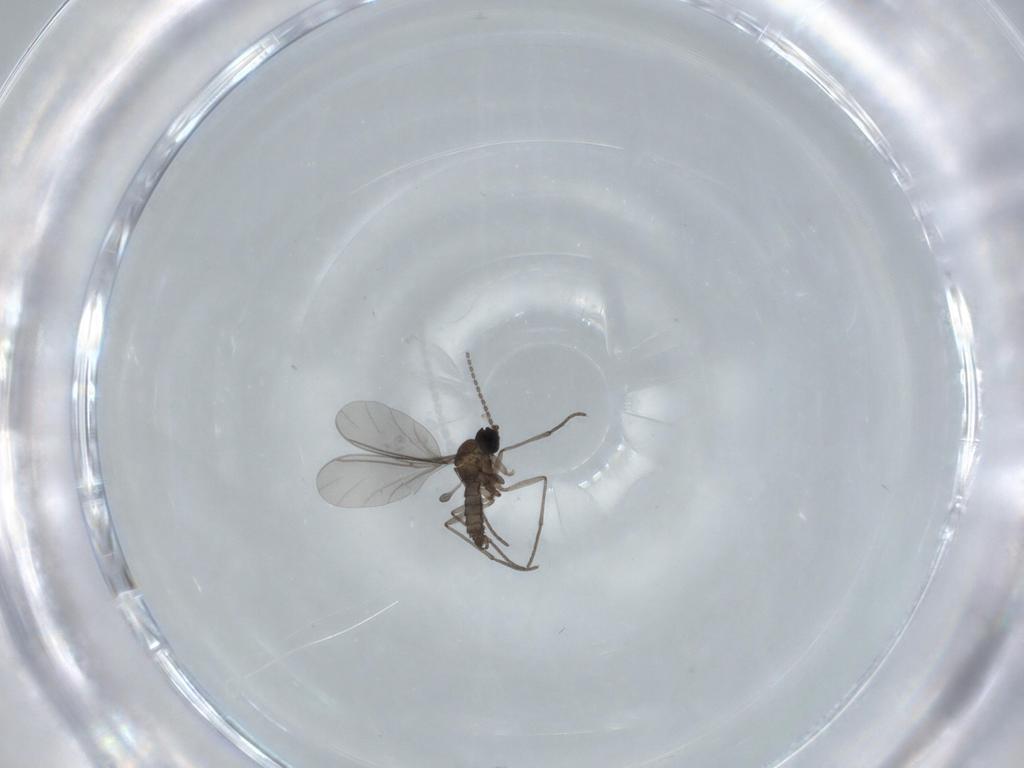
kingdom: Animalia
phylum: Arthropoda
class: Insecta
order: Diptera
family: Sciaridae
